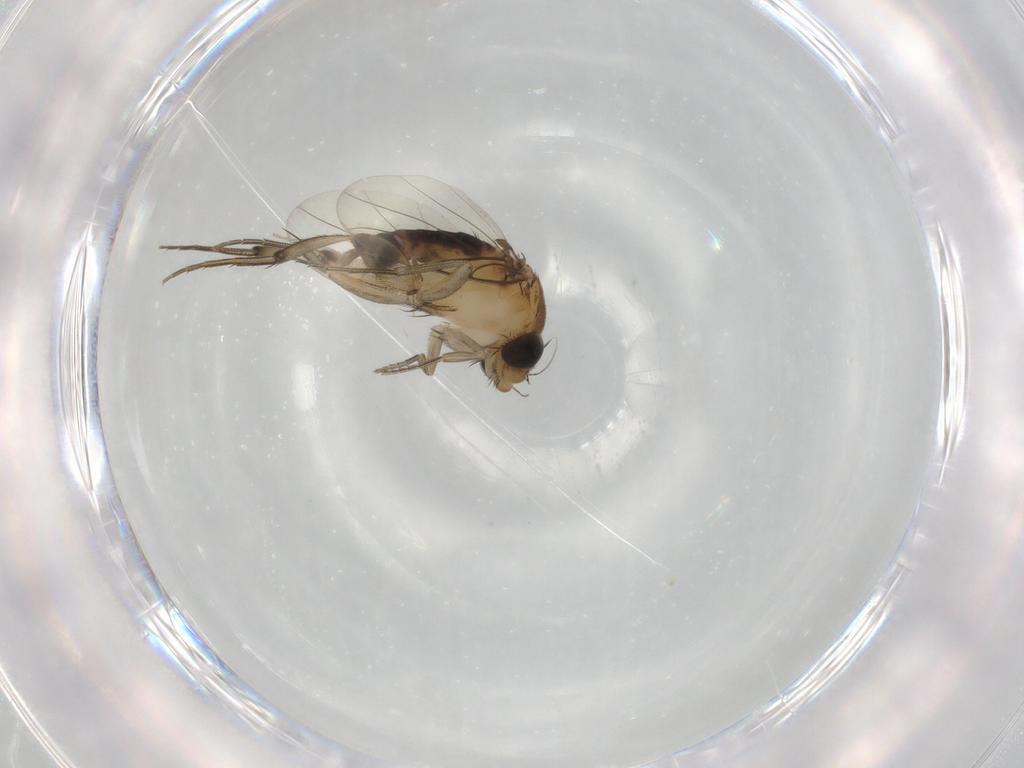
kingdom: Animalia
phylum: Arthropoda
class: Insecta
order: Diptera
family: Phoridae
